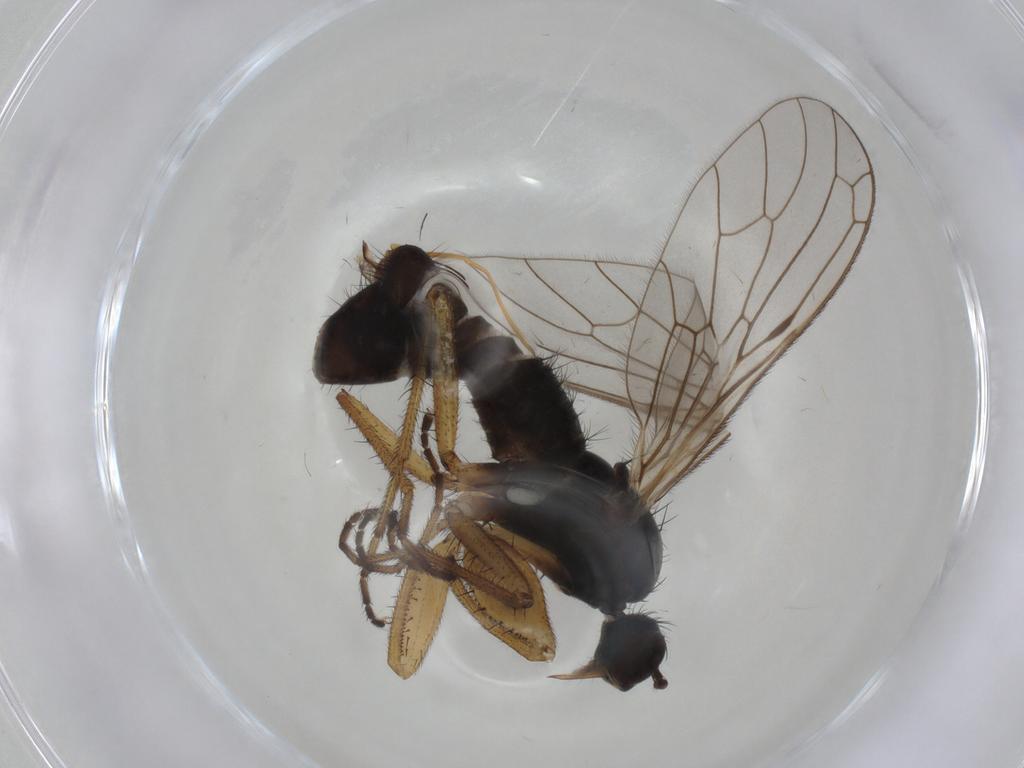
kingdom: Animalia
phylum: Arthropoda
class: Insecta
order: Diptera
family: Empididae
